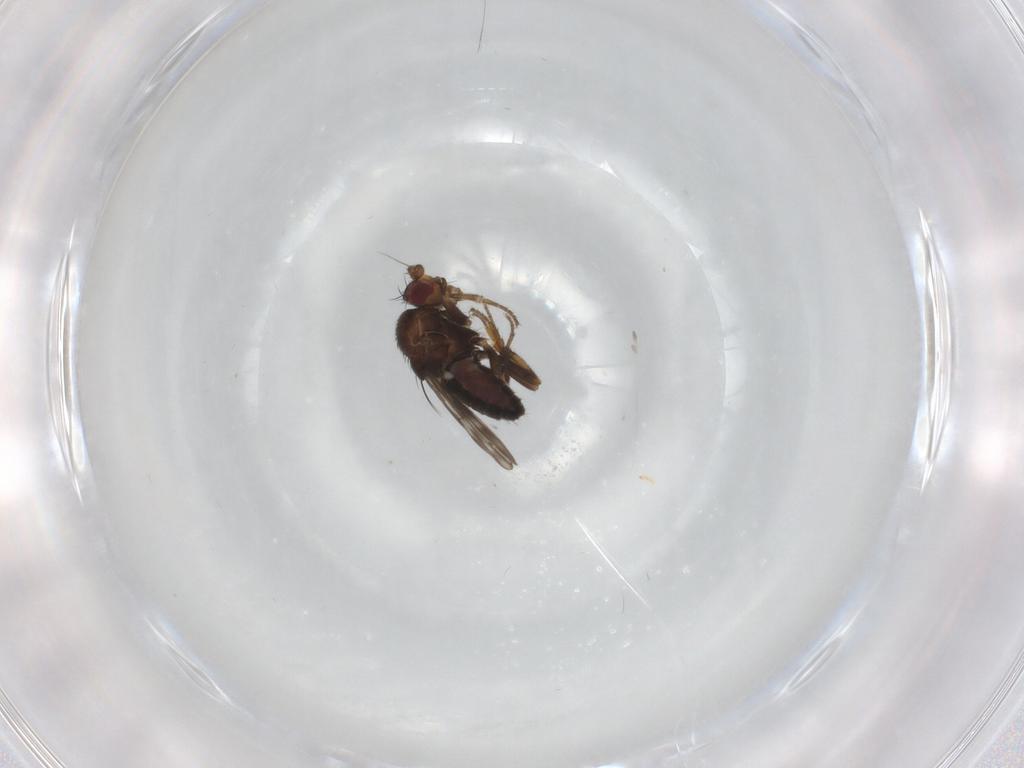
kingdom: Animalia
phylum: Arthropoda
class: Insecta
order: Diptera
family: Sphaeroceridae
